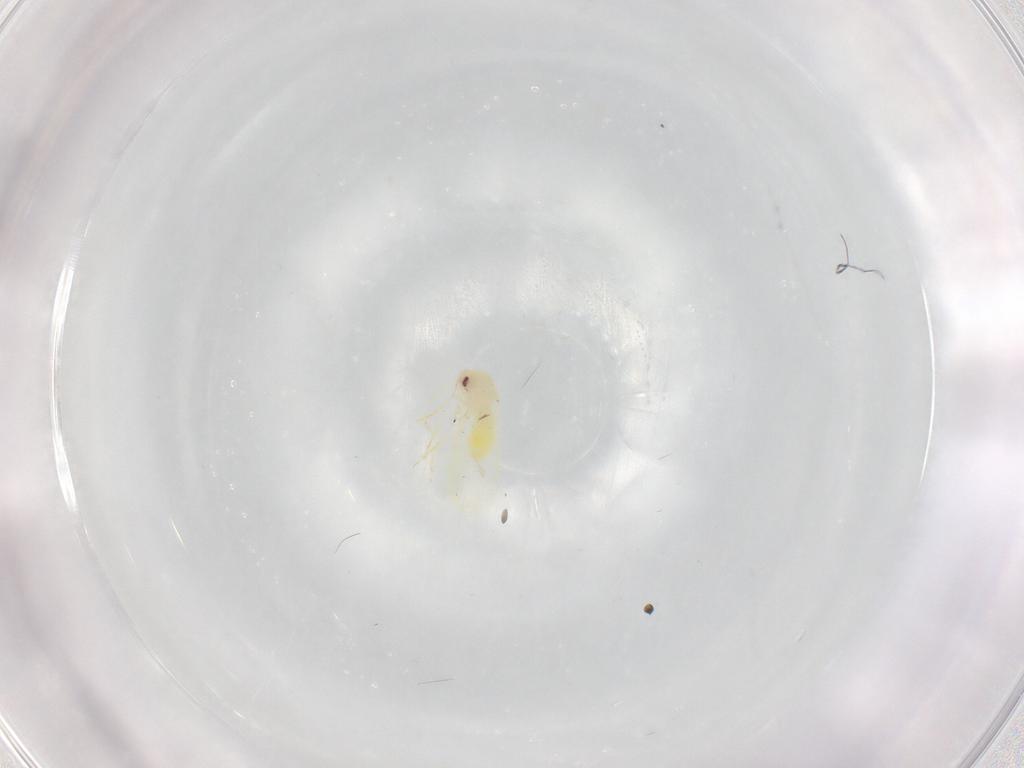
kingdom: Animalia
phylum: Arthropoda
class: Insecta
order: Hemiptera
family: Aleyrodidae
